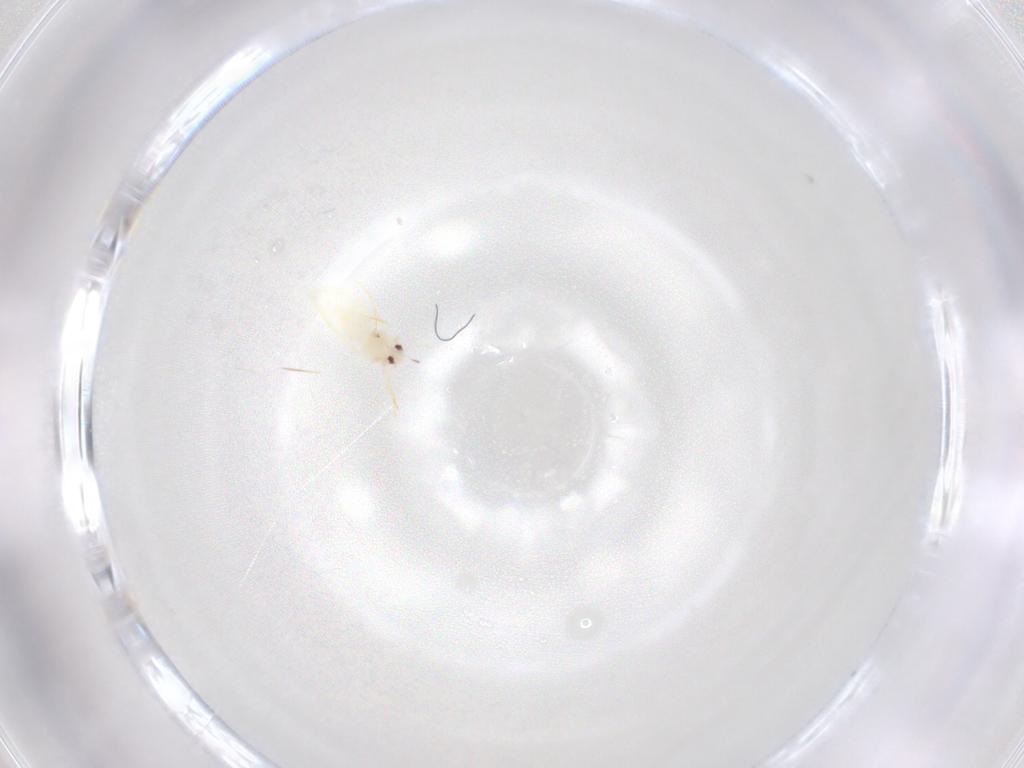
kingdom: Animalia
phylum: Arthropoda
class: Insecta
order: Hemiptera
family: Aleyrodidae
